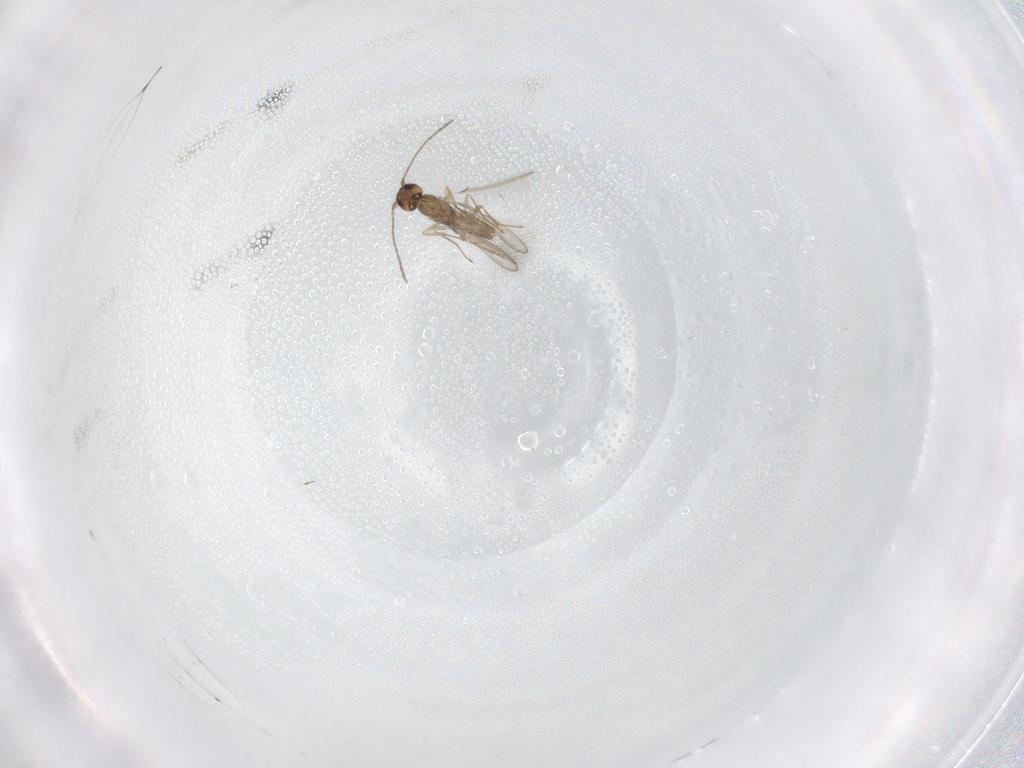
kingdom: Animalia
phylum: Arthropoda
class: Insecta
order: Hymenoptera
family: Mymaridae
